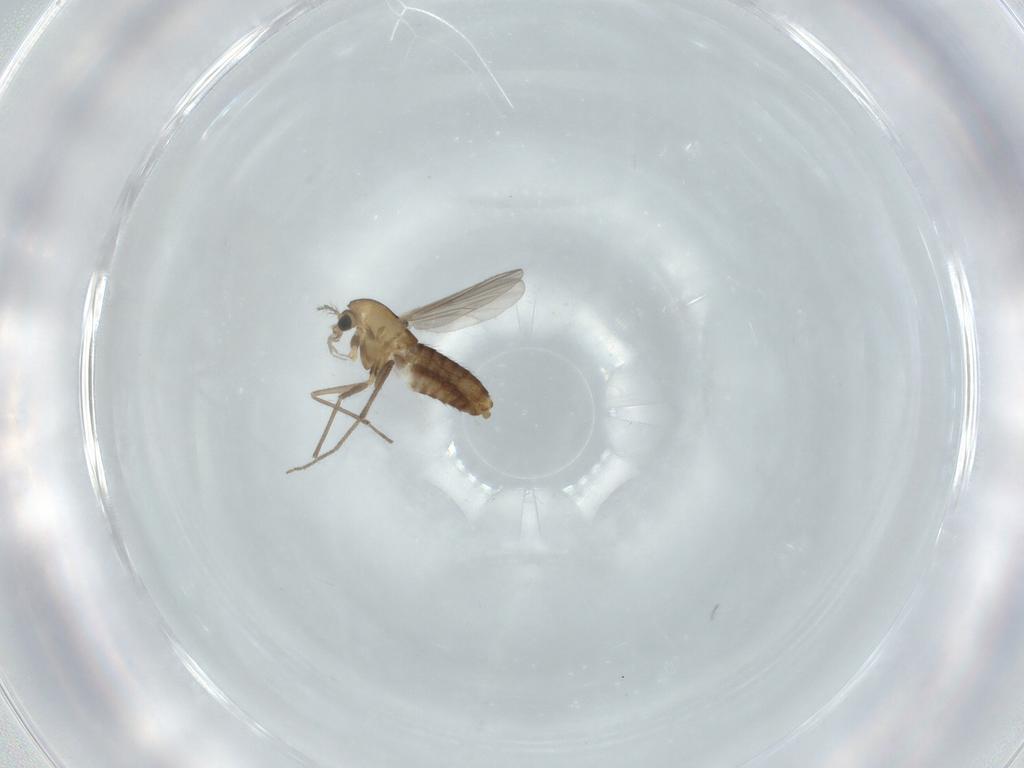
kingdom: Animalia
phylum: Arthropoda
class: Insecta
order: Diptera
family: Chironomidae
